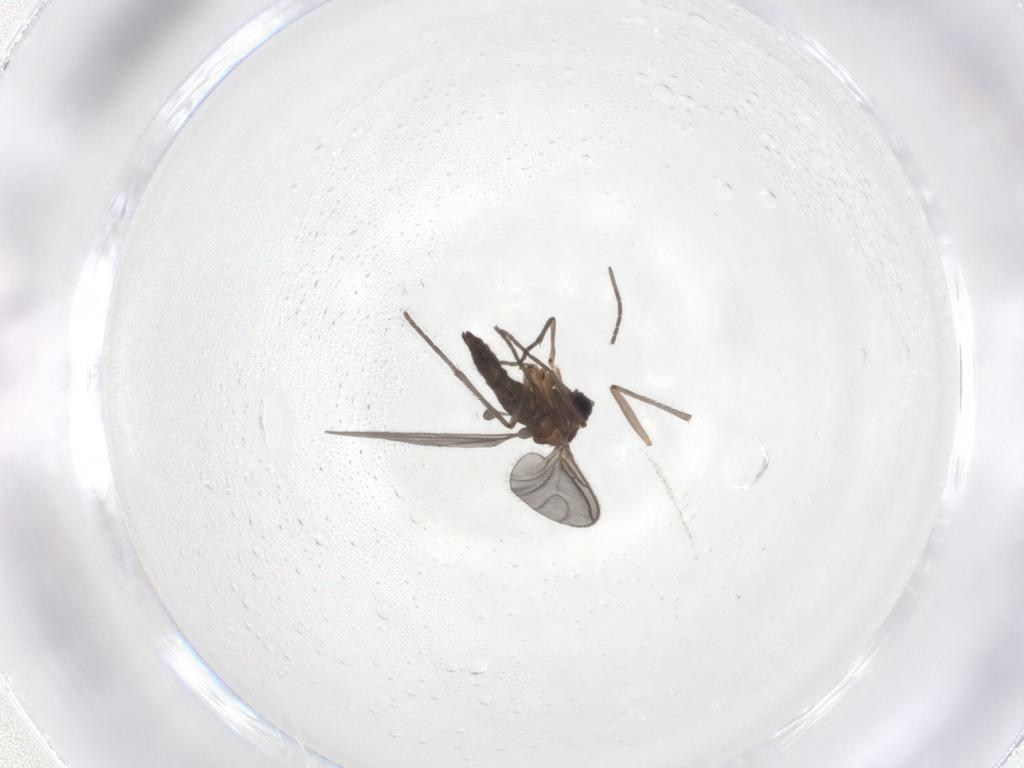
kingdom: Animalia
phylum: Arthropoda
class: Insecta
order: Diptera
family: Sciaridae
